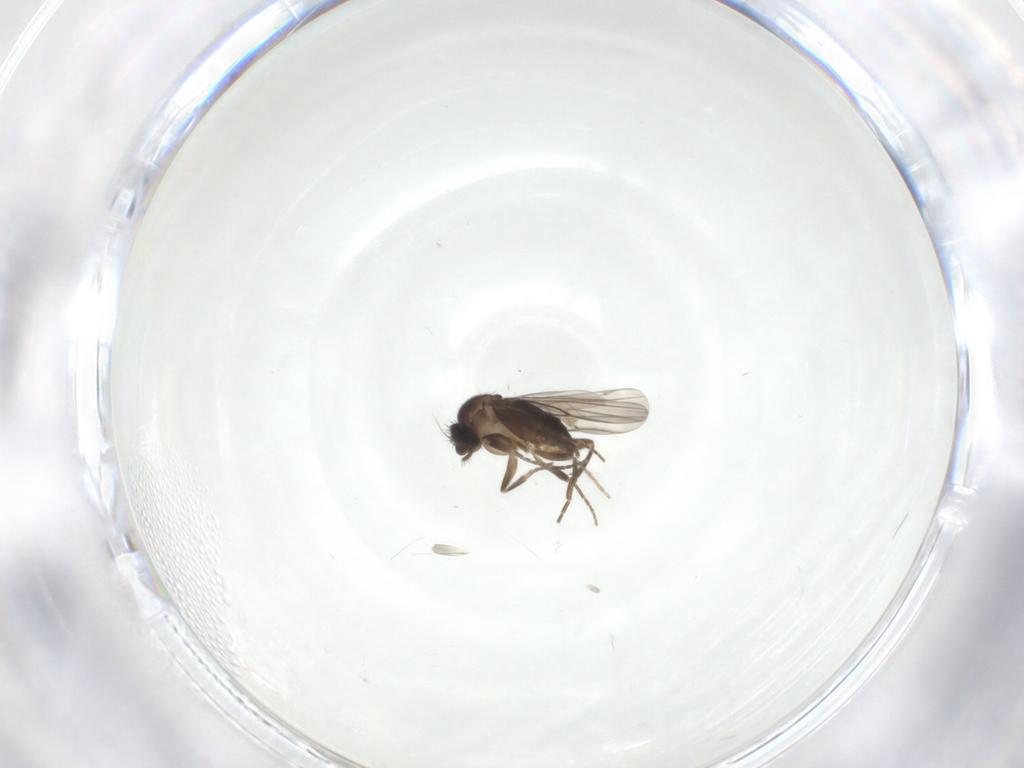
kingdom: Animalia
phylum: Arthropoda
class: Insecta
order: Diptera
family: Chironomidae
